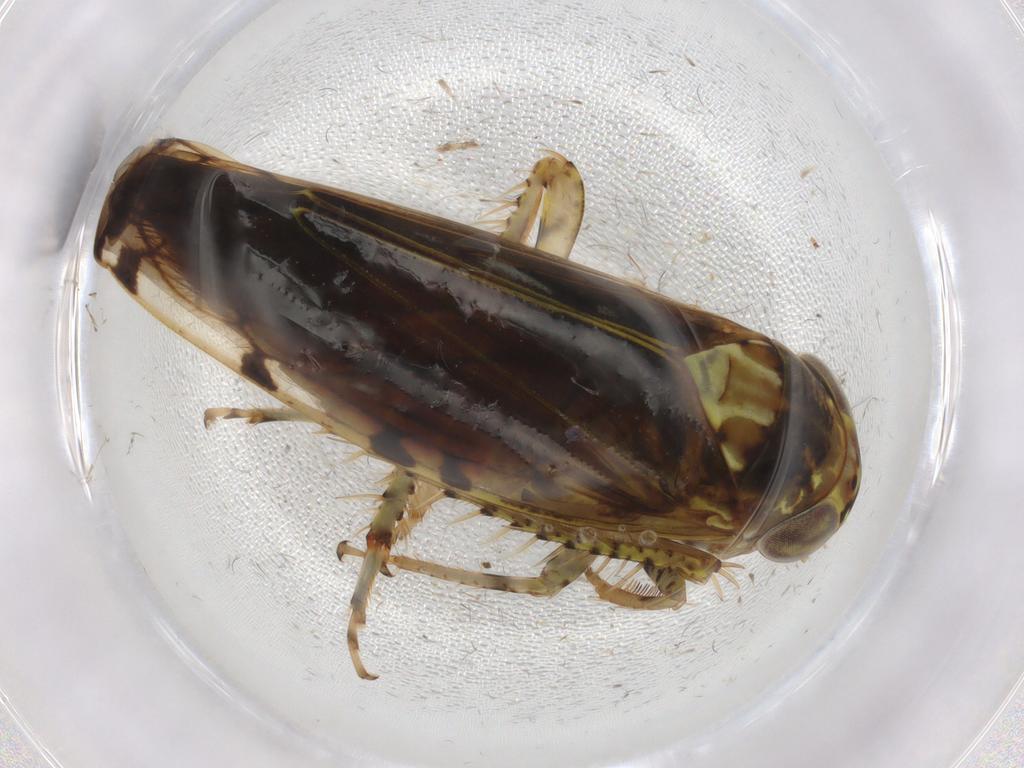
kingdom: Animalia
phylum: Arthropoda
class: Insecta
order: Hemiptera
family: Cicadellidae
